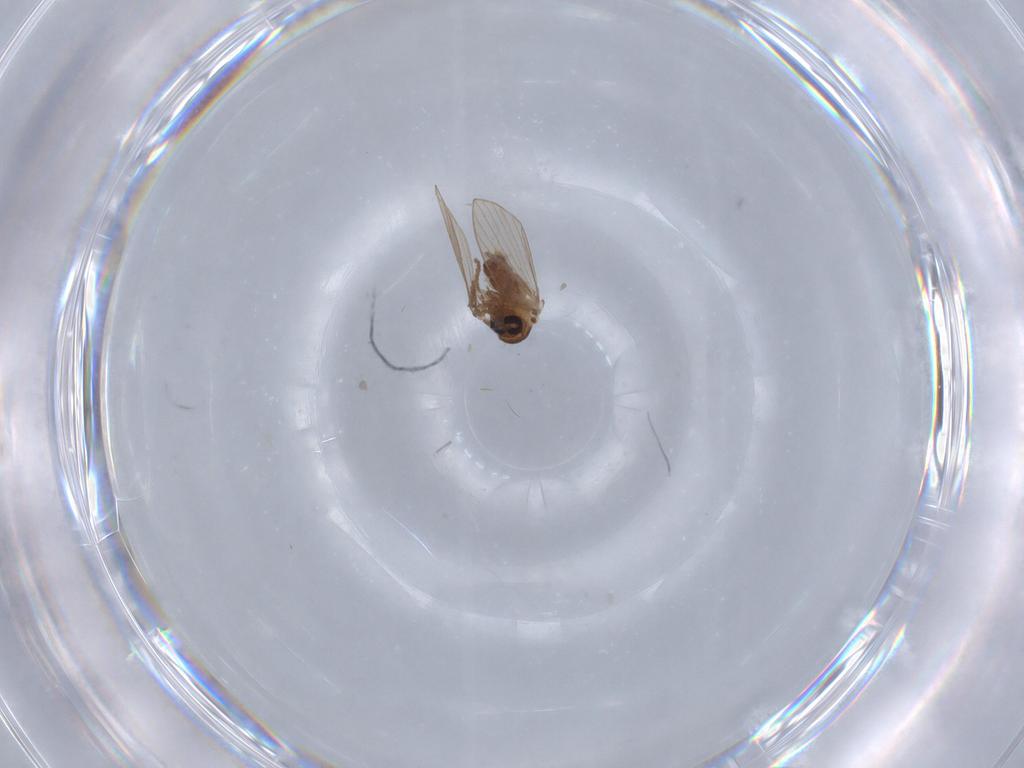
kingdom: Animalia
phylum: Arthropoda
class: Insecta
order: Diptera
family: Psychodidae
